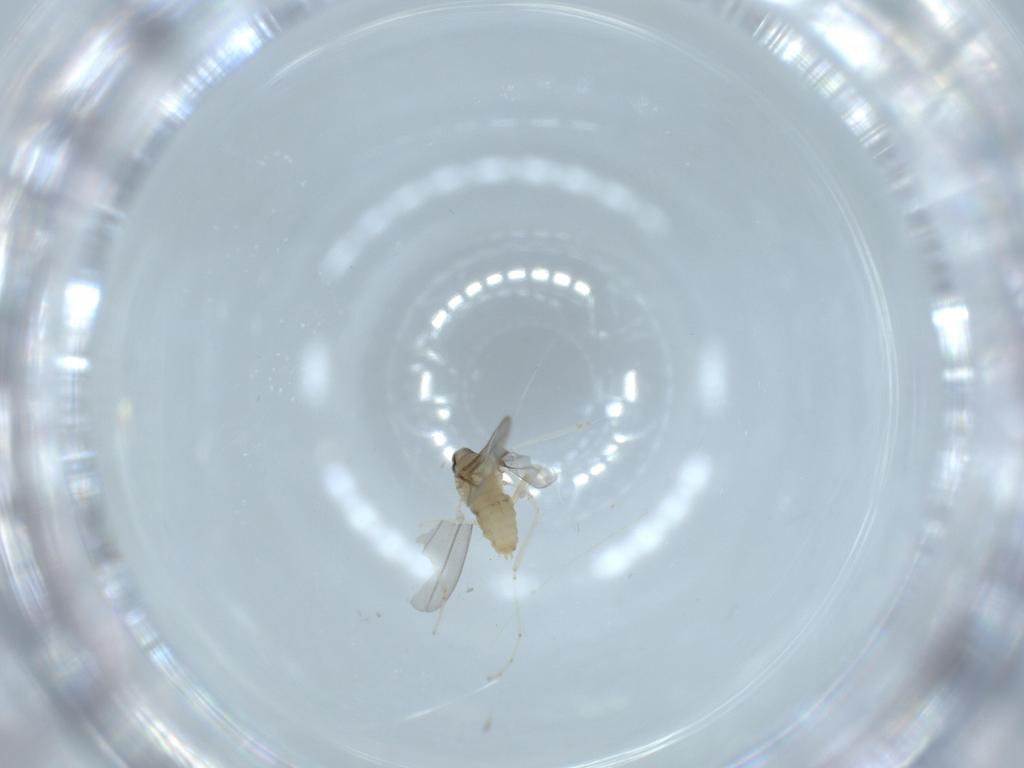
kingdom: Animalia
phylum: Arthropoda
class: Insecta
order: Diptera
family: Cecidomyiidae
